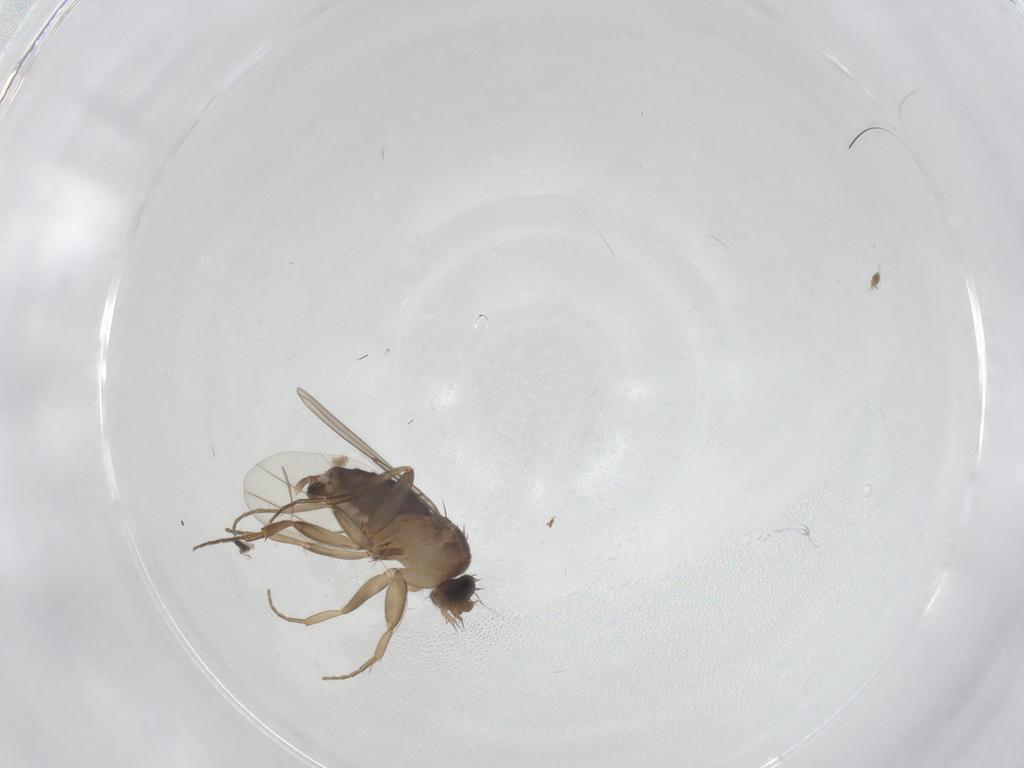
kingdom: Animalia
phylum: Arthropoda
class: Insecta
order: Diptera
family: Phoridae
